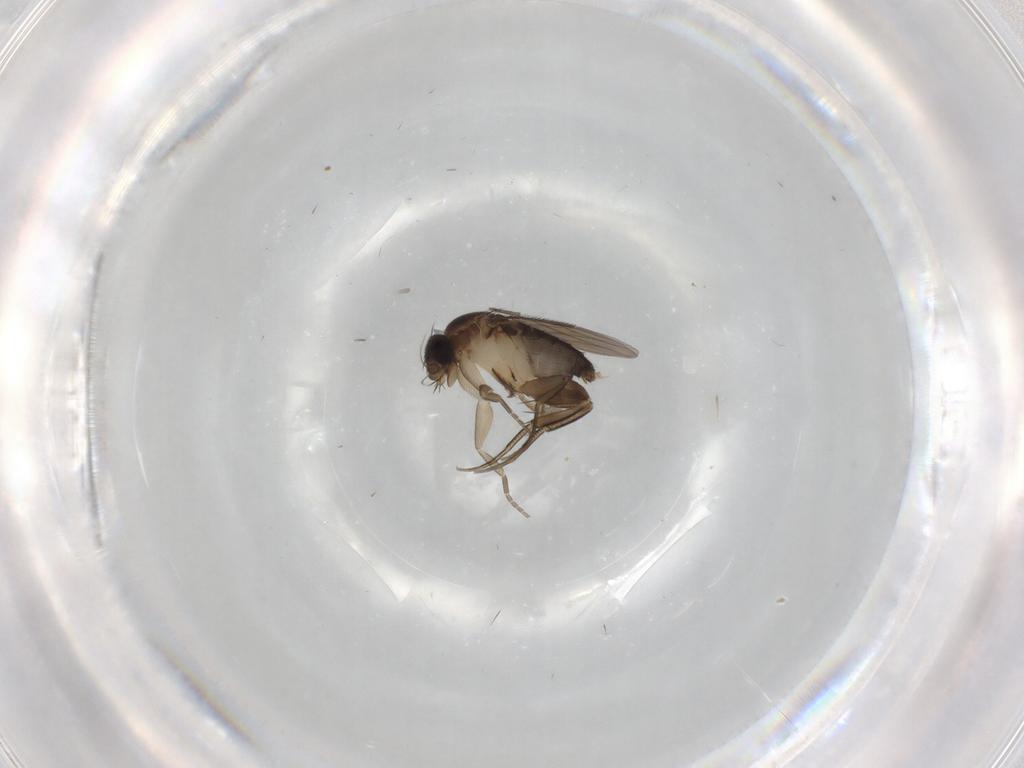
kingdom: Animalia
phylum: Arthropoda
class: Insecta
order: Diptera
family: Phoridae
